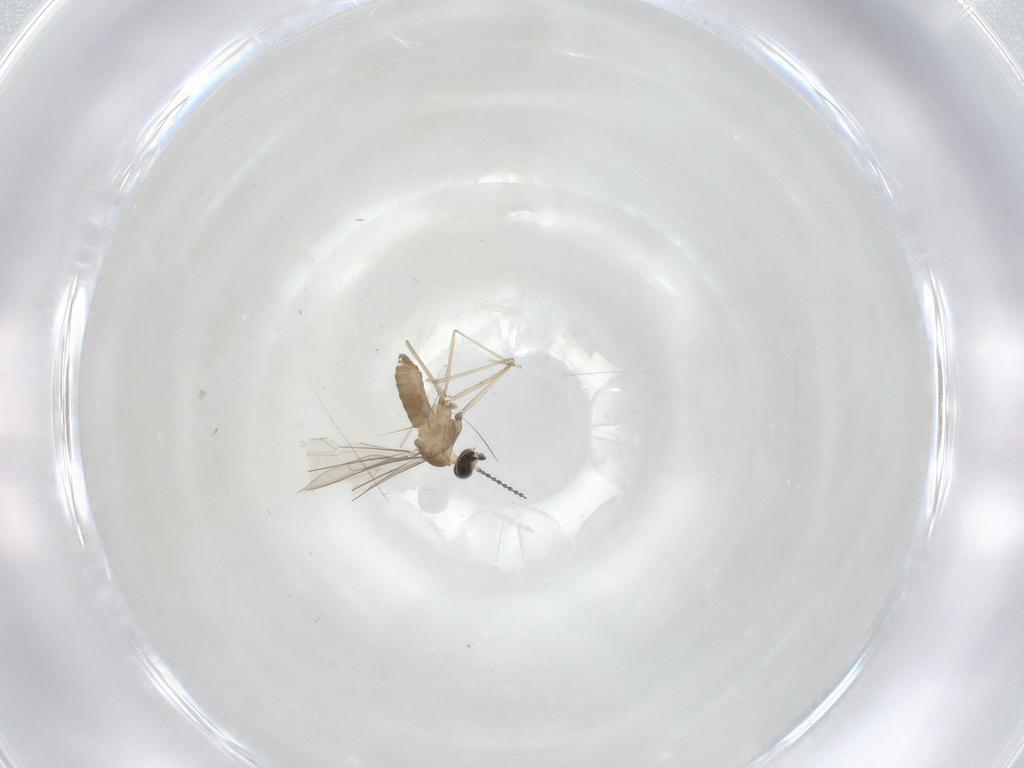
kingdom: Animalia
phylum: Arthropoda
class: Insecta
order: Diptera
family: Cecidomyiidae
